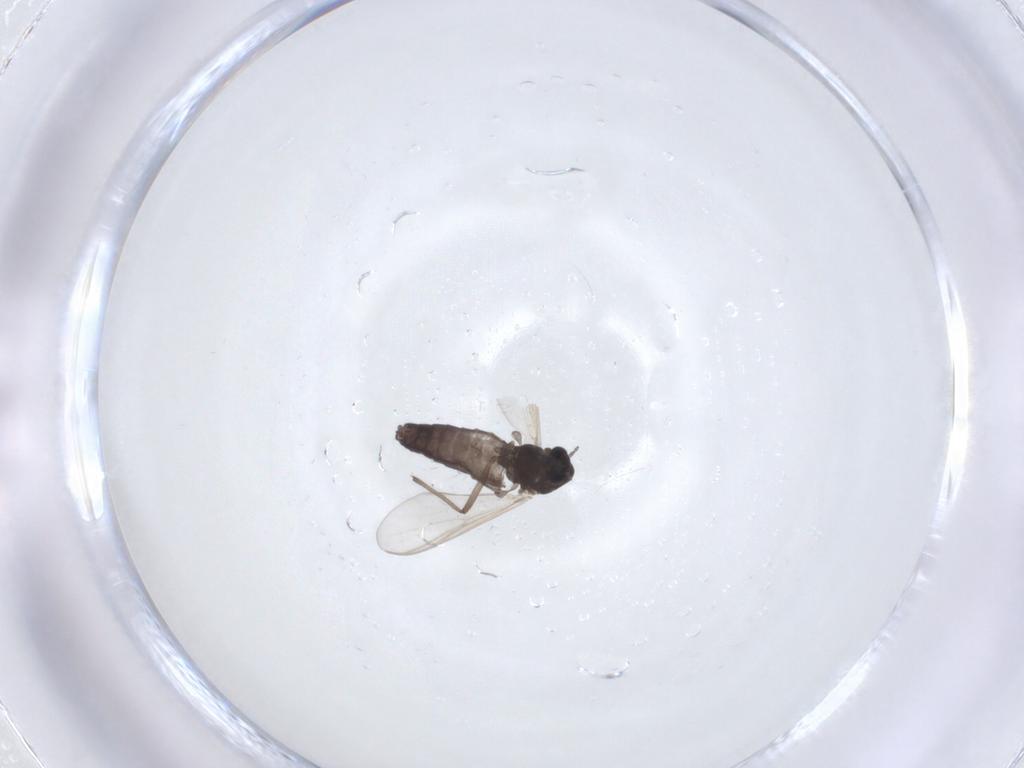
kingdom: Animalia
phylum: Arthropoda
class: Insecta
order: Diptera
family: Chironomidae
